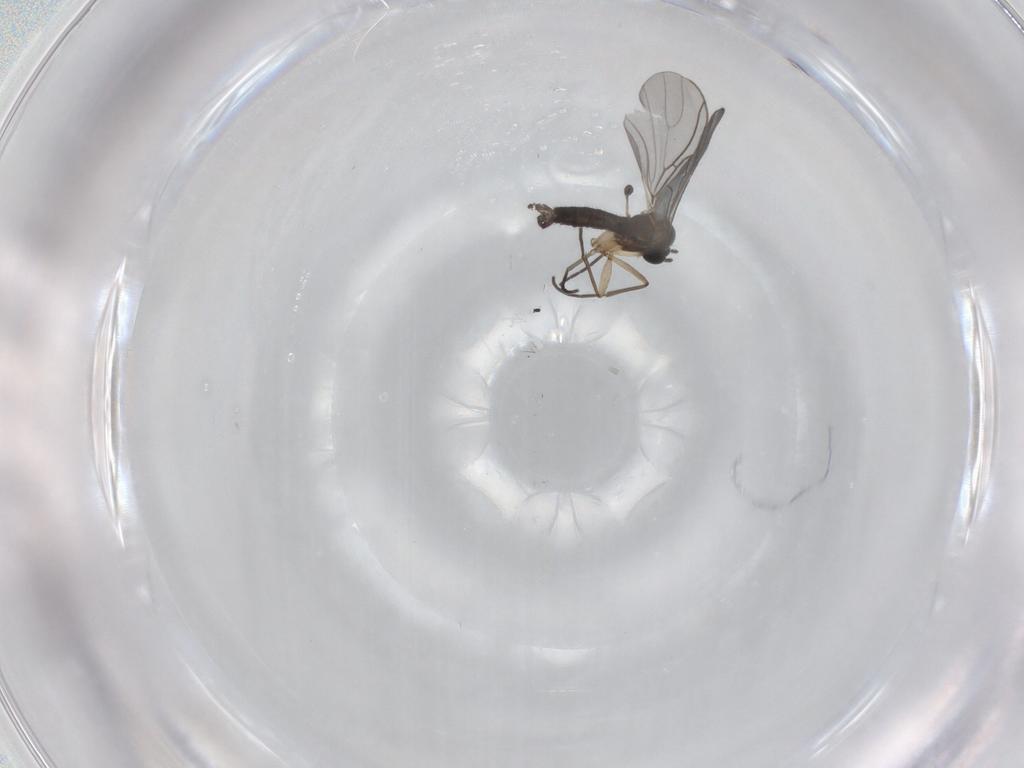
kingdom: Animalia
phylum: Arthropoda
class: Insecta
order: Diptera
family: Sciaridae
